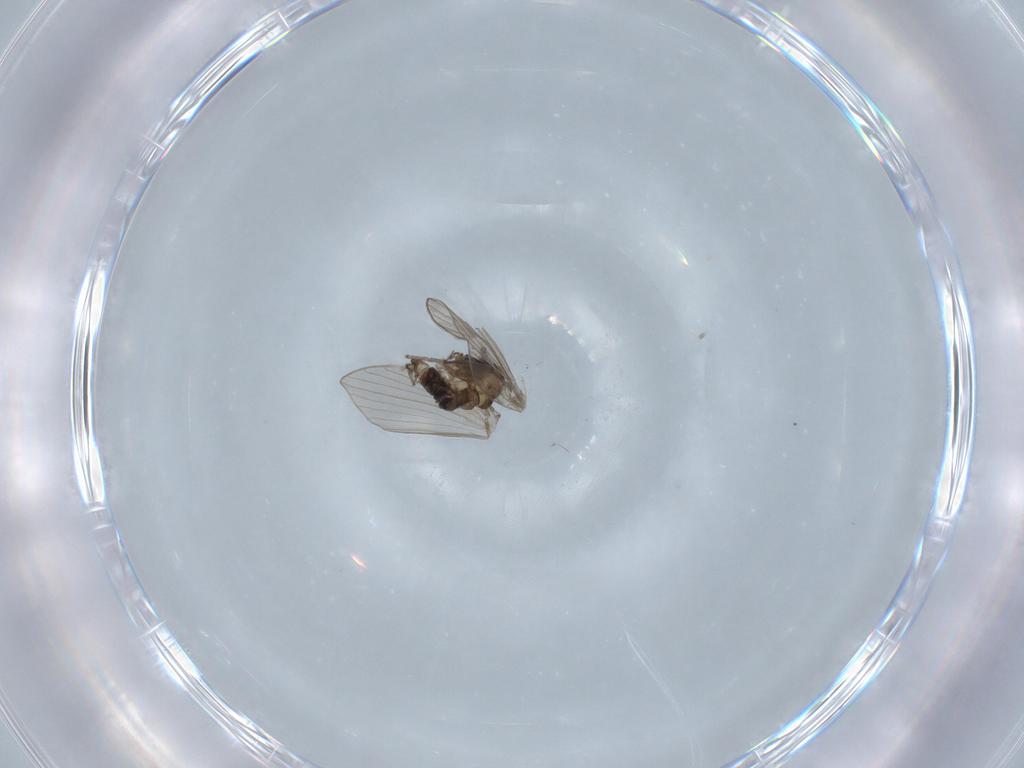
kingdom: Animalia
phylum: Arthropoda
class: Insecta
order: Diptera
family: Psychodidae
